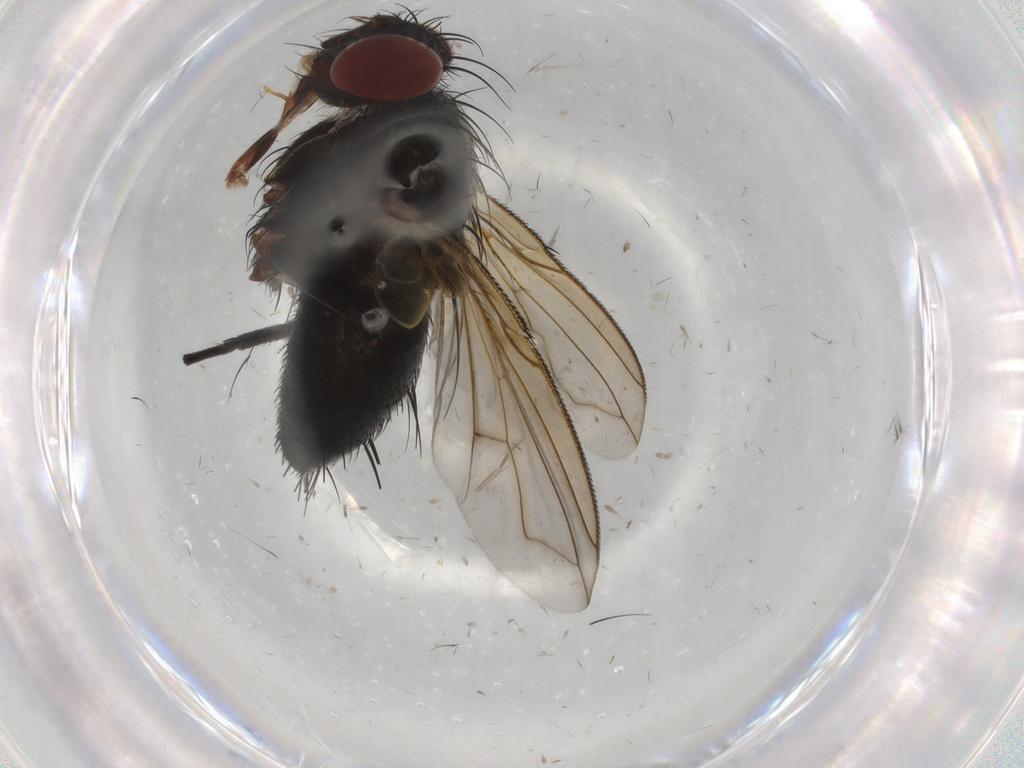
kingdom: Animalia
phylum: Arthropoda
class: Insecta
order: Diptera
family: Phoridae
